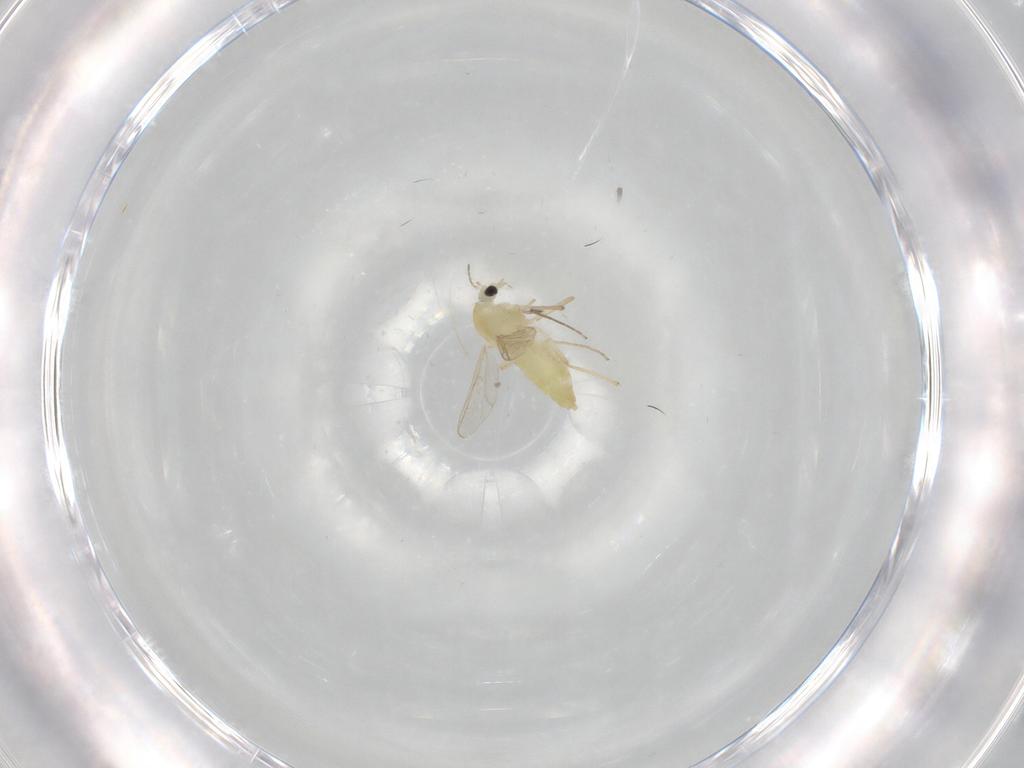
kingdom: Animalia
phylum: Arthropoda
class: Insecta
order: Diptera
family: Chironomidae
